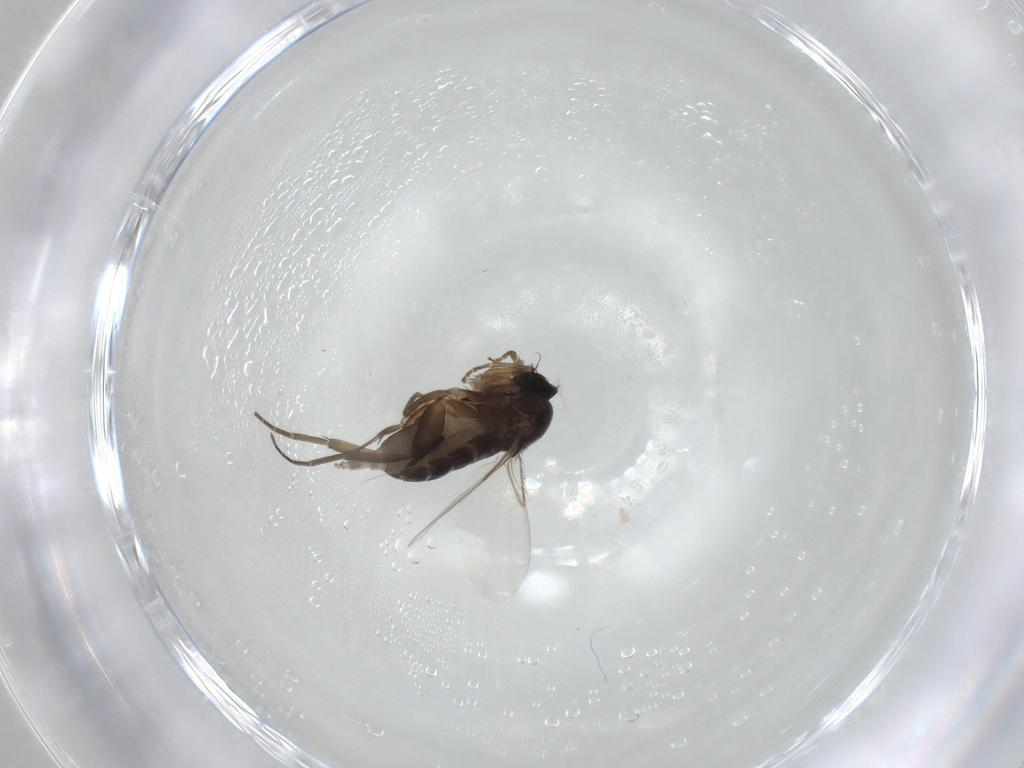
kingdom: Animalia
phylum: Arthropoda
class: Insecta
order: Diptera
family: Phoridae
